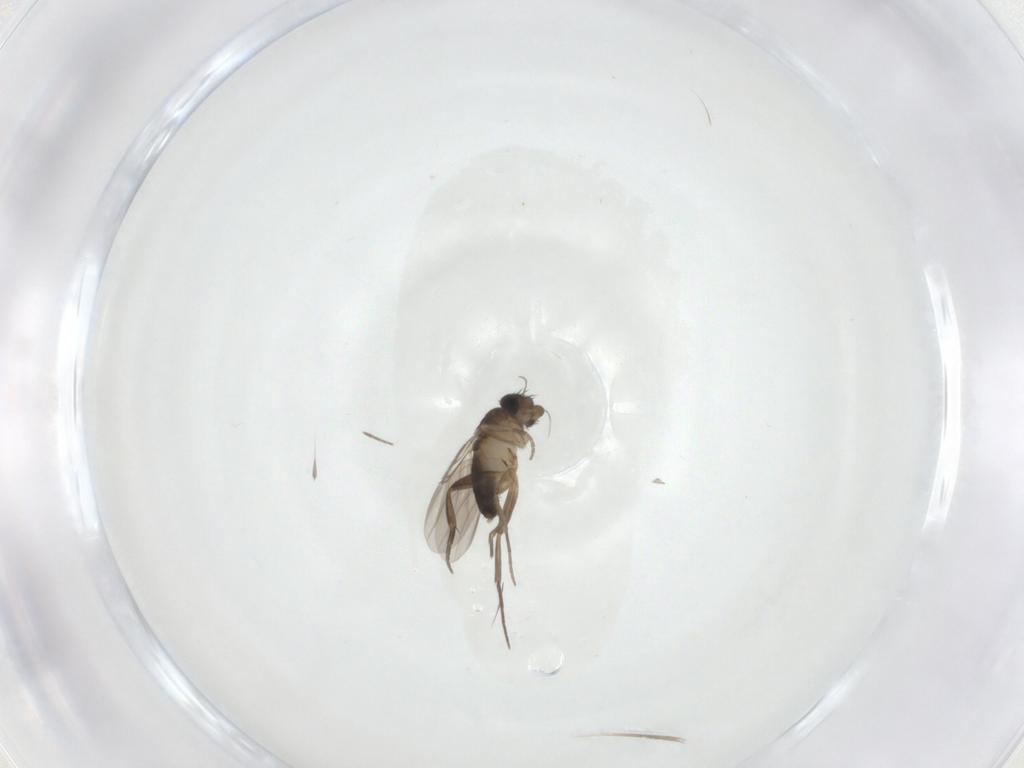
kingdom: Animalia
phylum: Arthropoda
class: Insecta
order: Diptera
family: Phoridae
